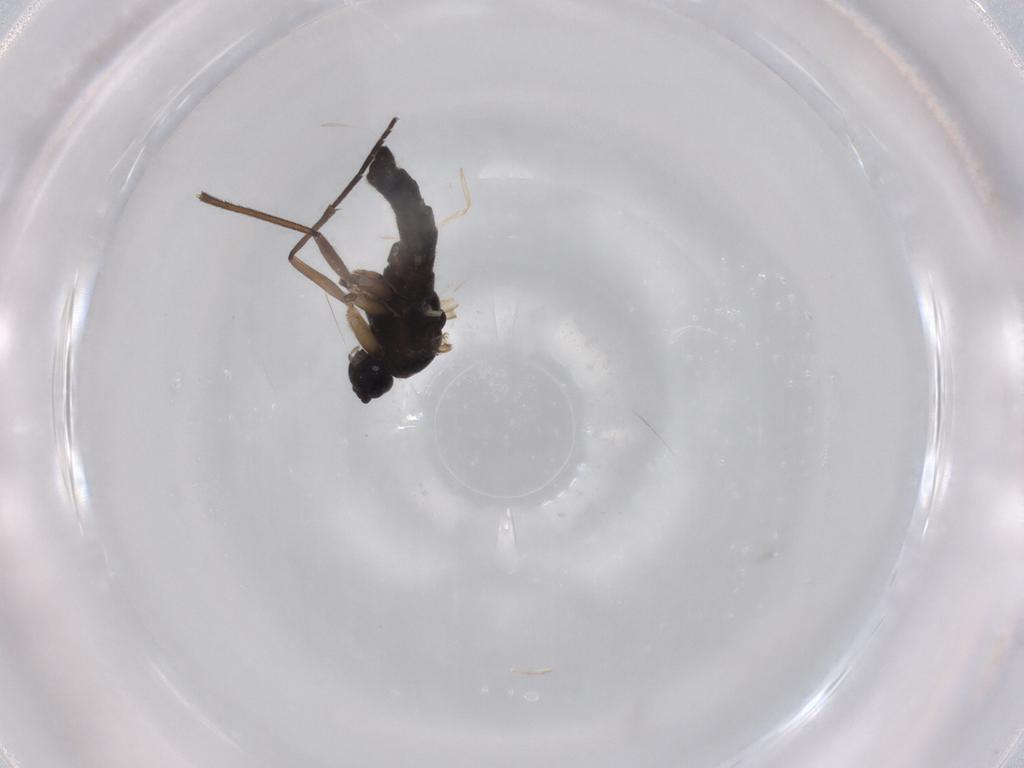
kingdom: Animalia
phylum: Arthropoda
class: Insecta
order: Diptera
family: Sciaridae
